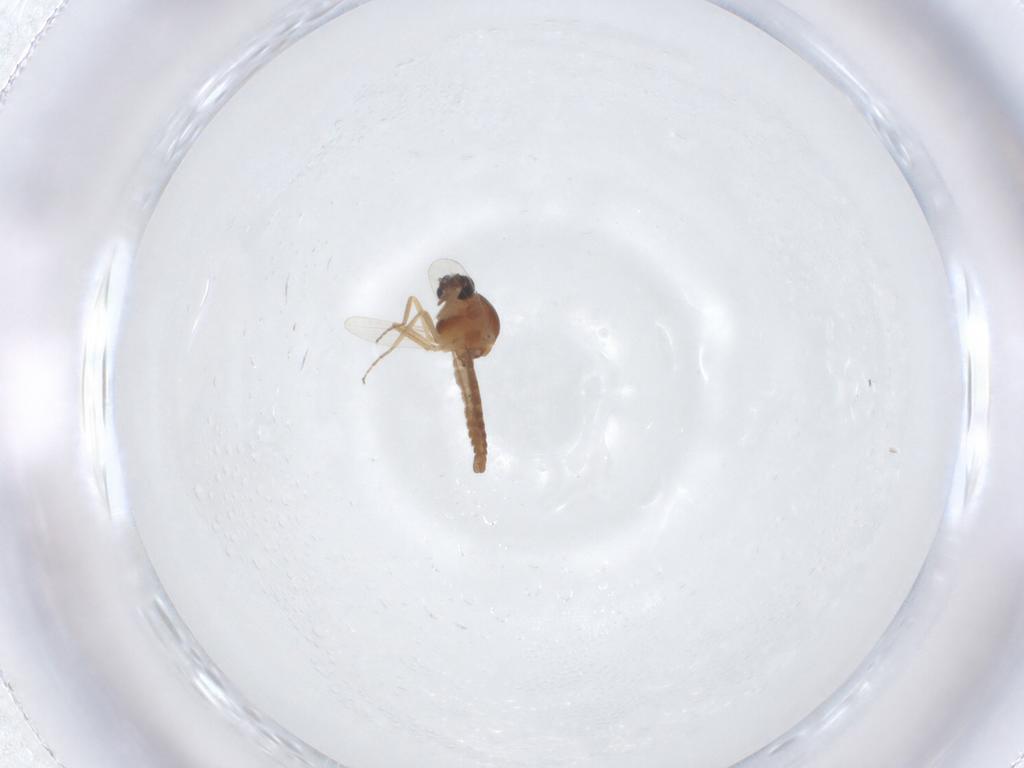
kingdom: Animalia
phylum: Arthropoda
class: Insecta
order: Diptera
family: Ceratopogonidae
